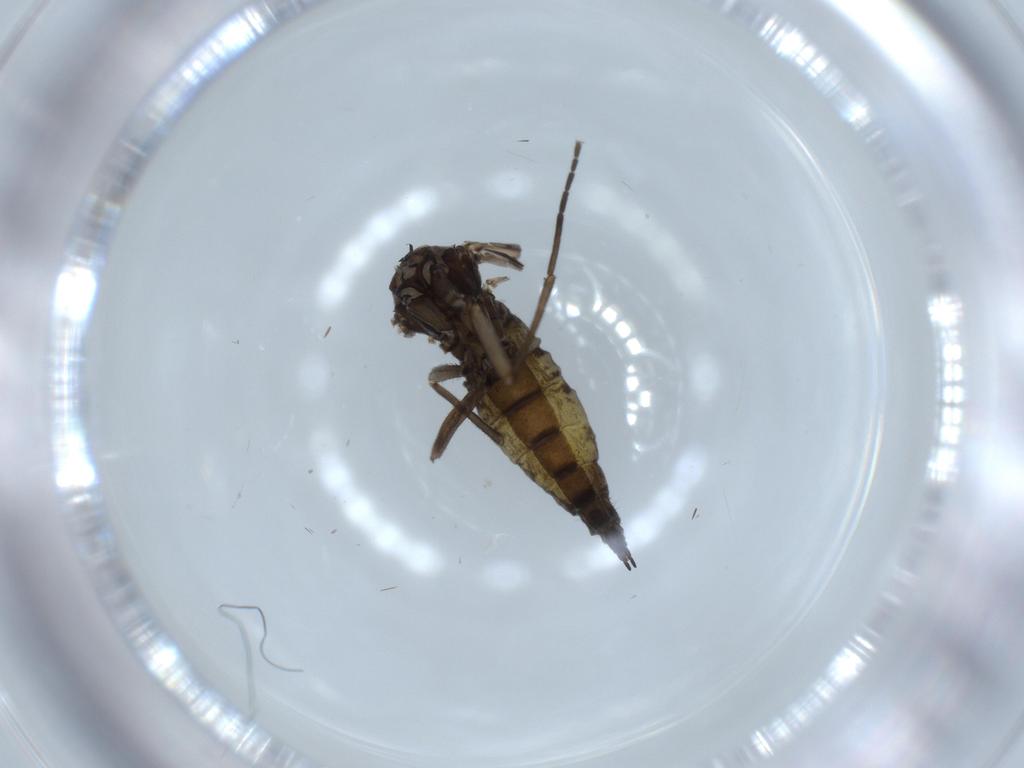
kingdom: Animalia
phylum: Arthropoda
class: Insecta
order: Diptera
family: Sciaridae
